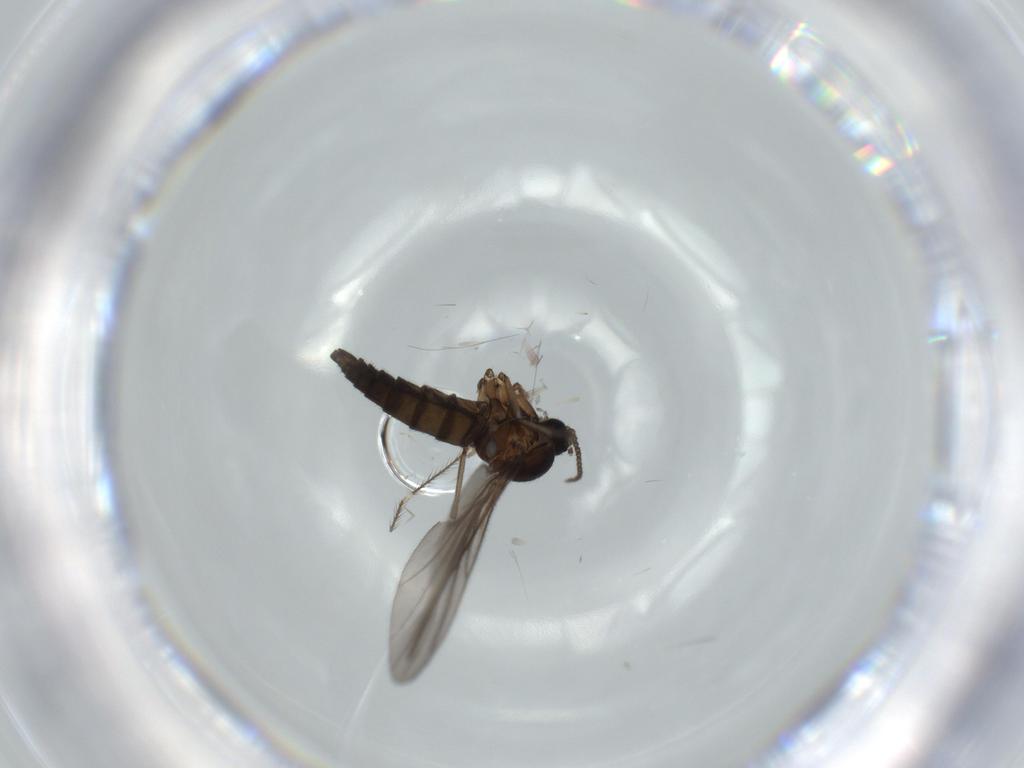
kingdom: Animalia
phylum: Arthropoda
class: Insecta
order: Diptera
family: Sciaridae
